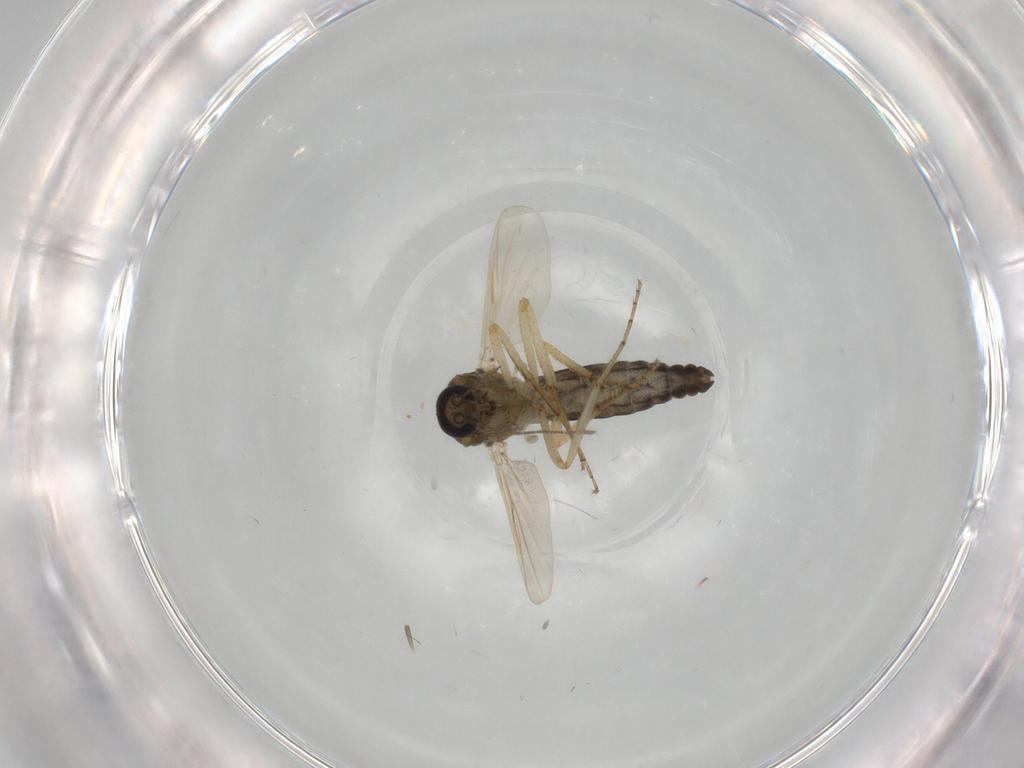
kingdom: Animalia
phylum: Arthropoda
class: Insecta
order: Diptera
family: Ceratopogonidae
